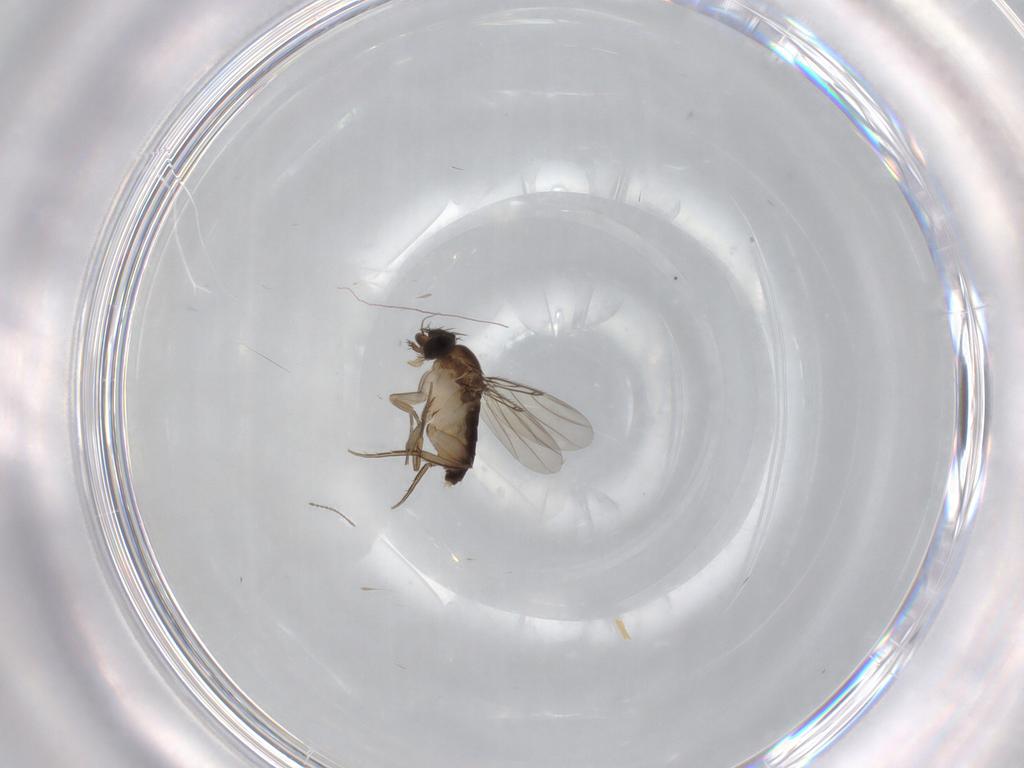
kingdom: Animalia
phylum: Arthropoda
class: Insecta
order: Diptera
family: Phoridae
